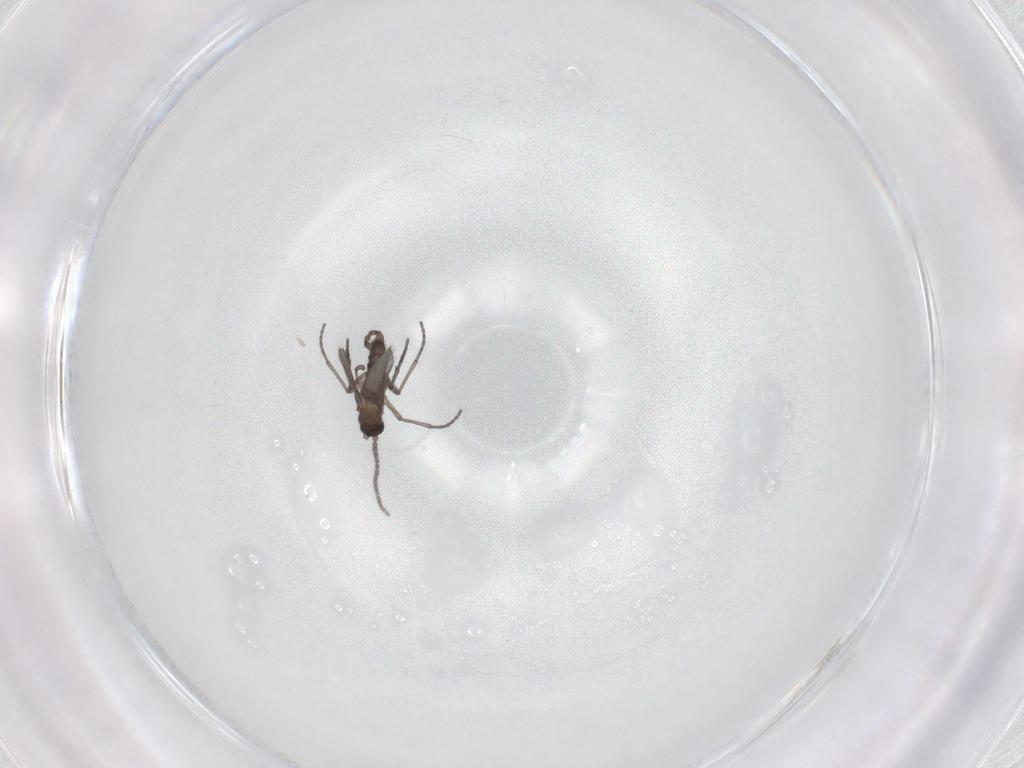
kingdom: Animalia
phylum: Arthropoda
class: Insecta
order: Diptera
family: Sciaridae
